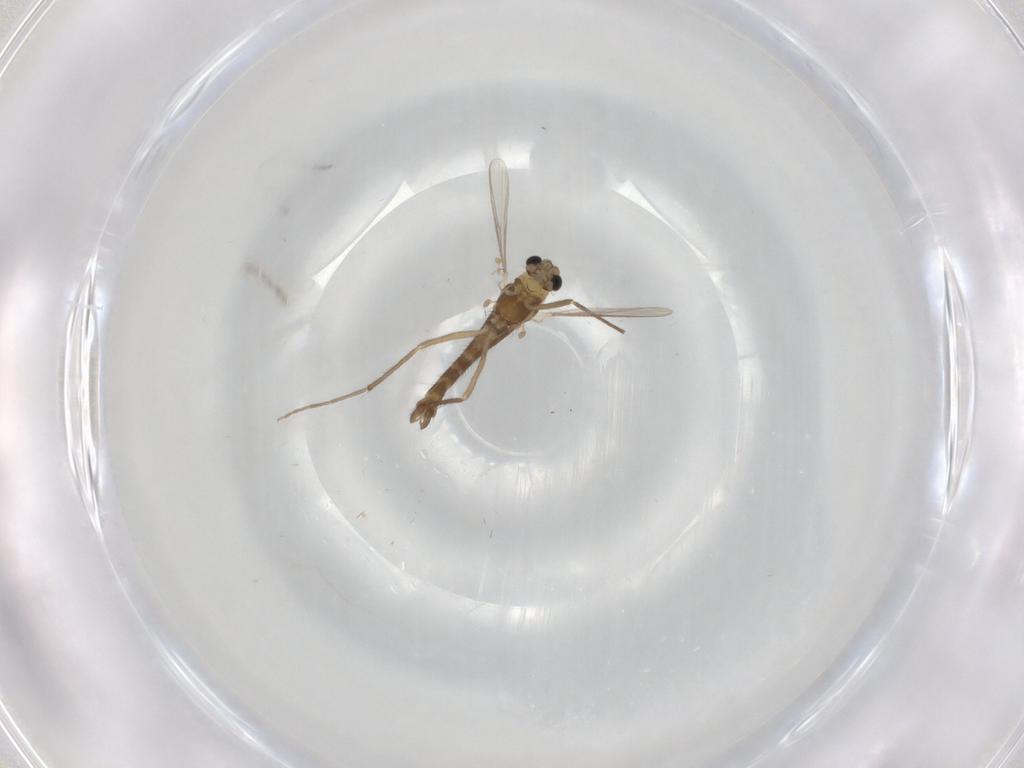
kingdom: Animalia
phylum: Arthropoda
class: Insecta
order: Diptera
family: Chironomidae
